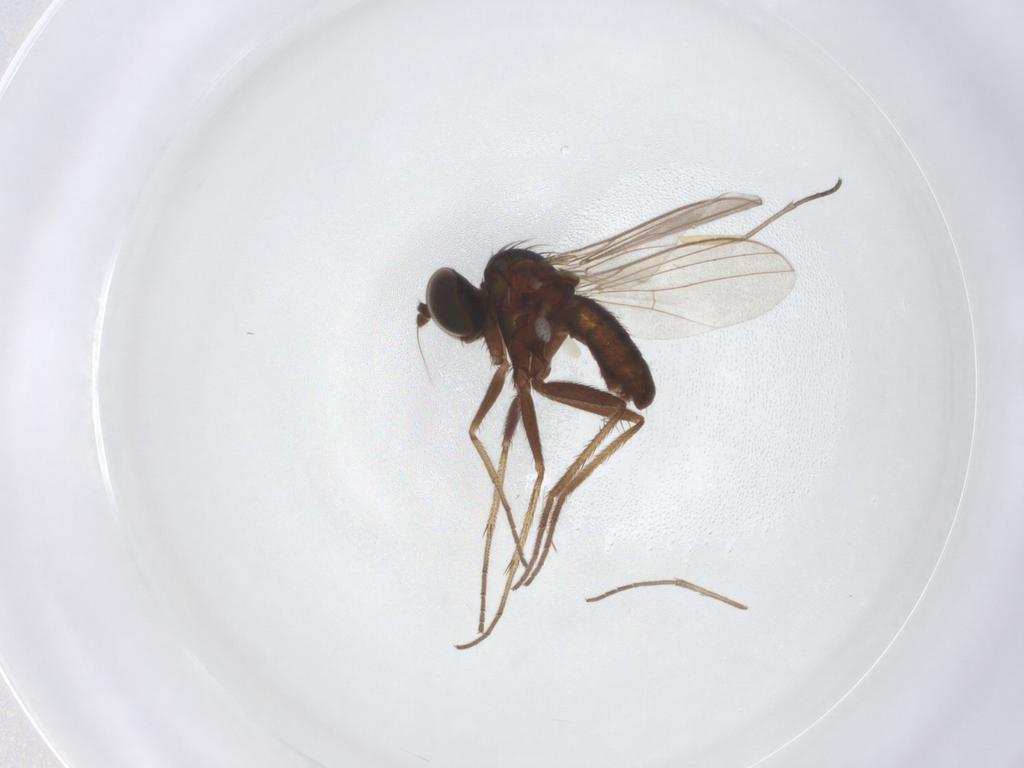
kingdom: Animalia
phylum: Arthropoda
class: Insecta
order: Diptera
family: Dolichopodidae
